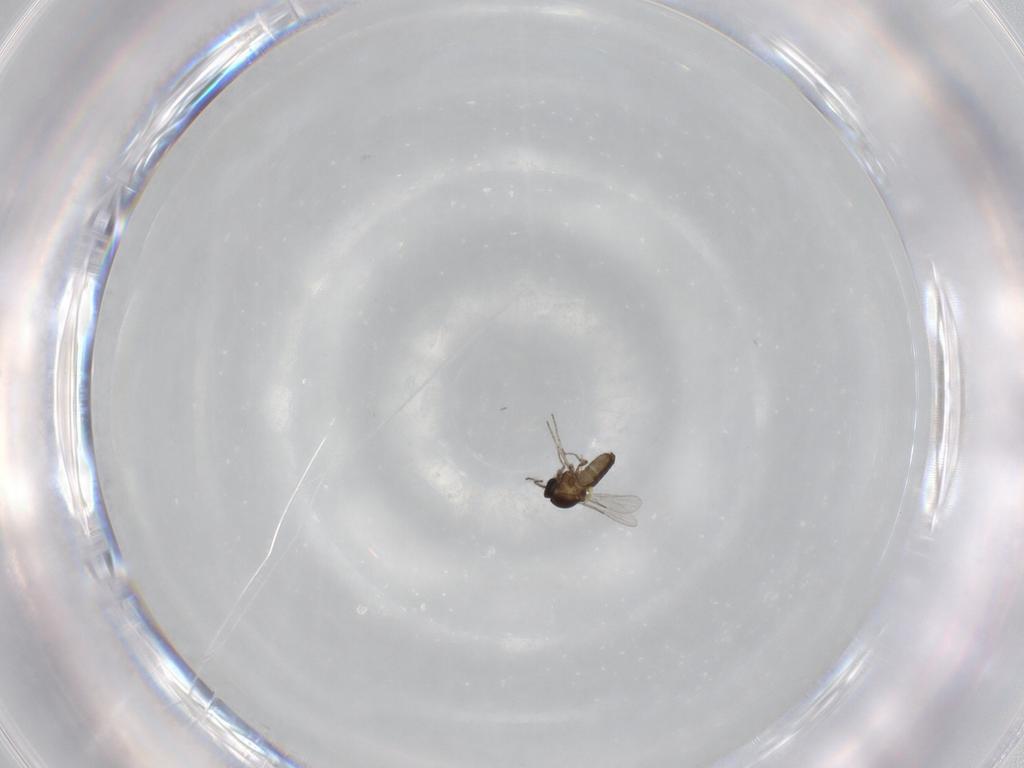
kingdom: Animalia
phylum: Arthropoda
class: Insecta
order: Diptera
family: Ceratopogonidae
